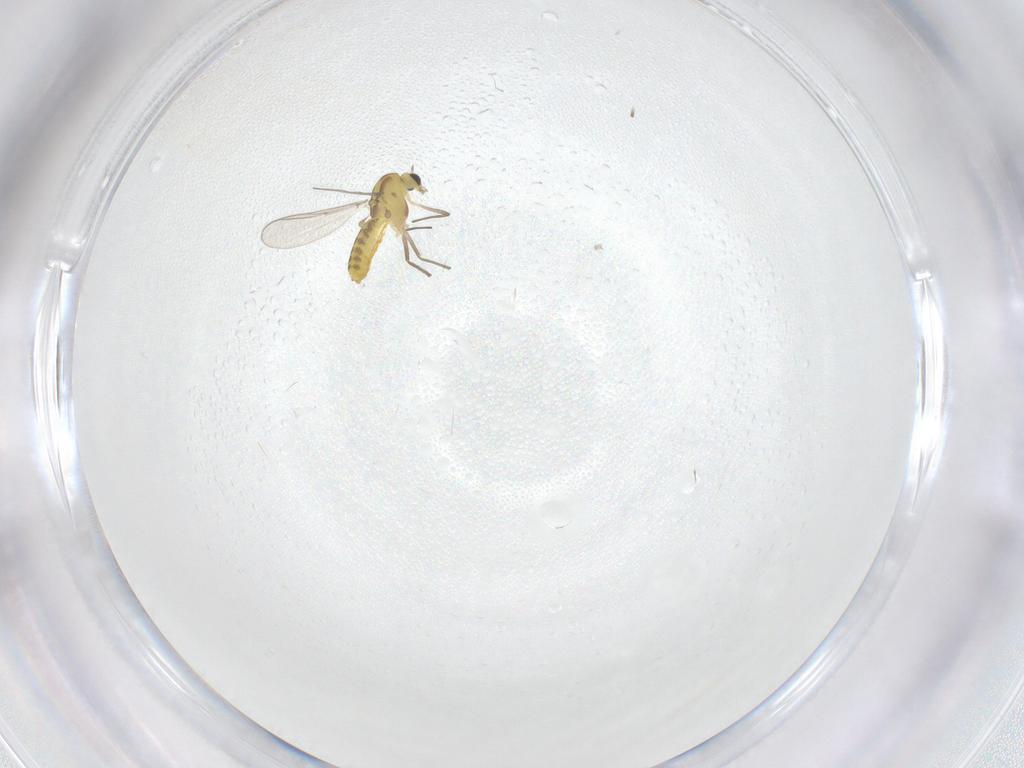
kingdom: Animalia
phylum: Arthropoda
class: Insecta
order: Diptera
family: Chironomidae
